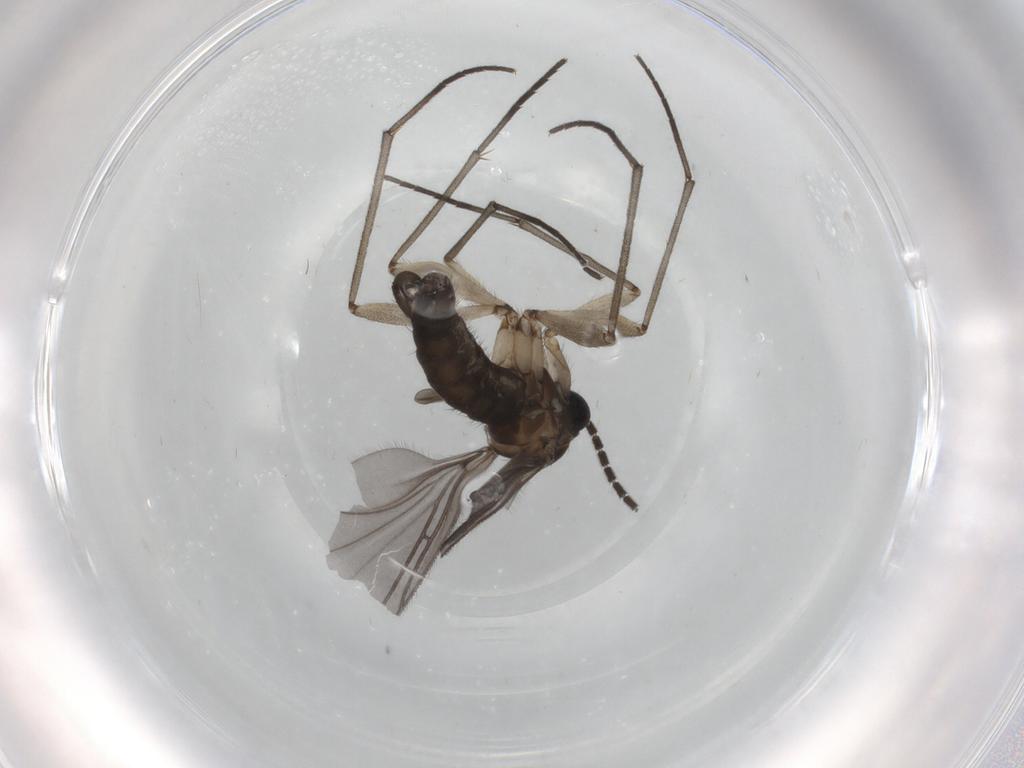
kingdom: Animalia
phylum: Arthropoda
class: Insecta
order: Diptera
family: Sciaridae
